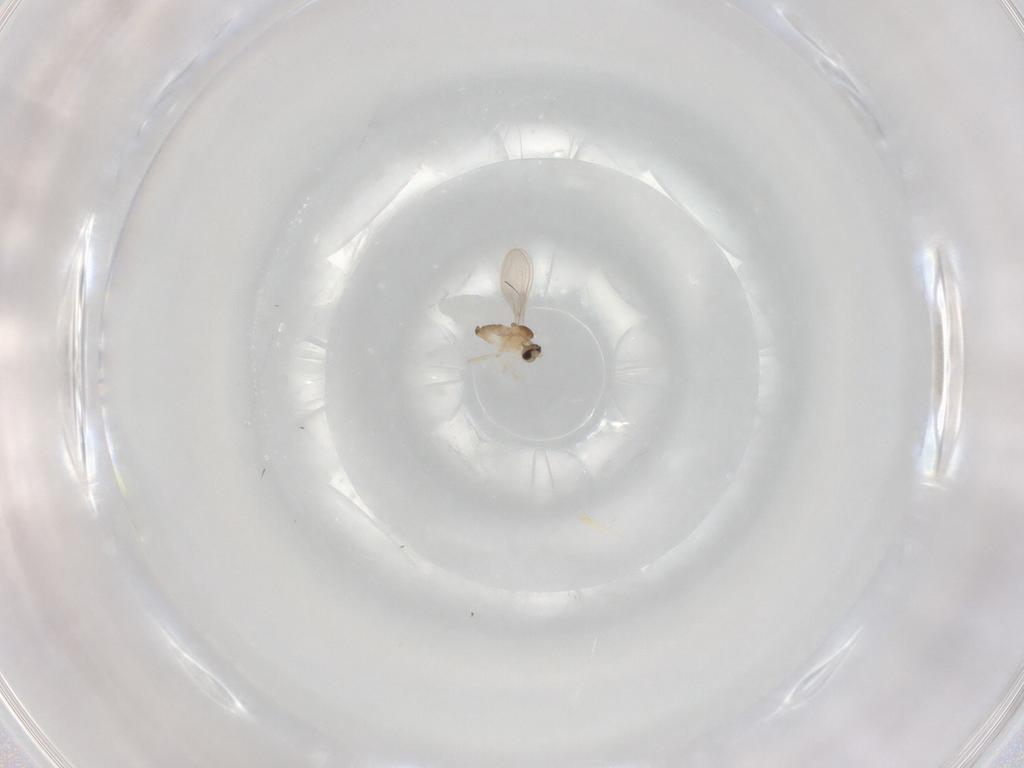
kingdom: Animalia
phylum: Arthropoda
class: Insecta
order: Diptera
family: Cecidomyiidae
